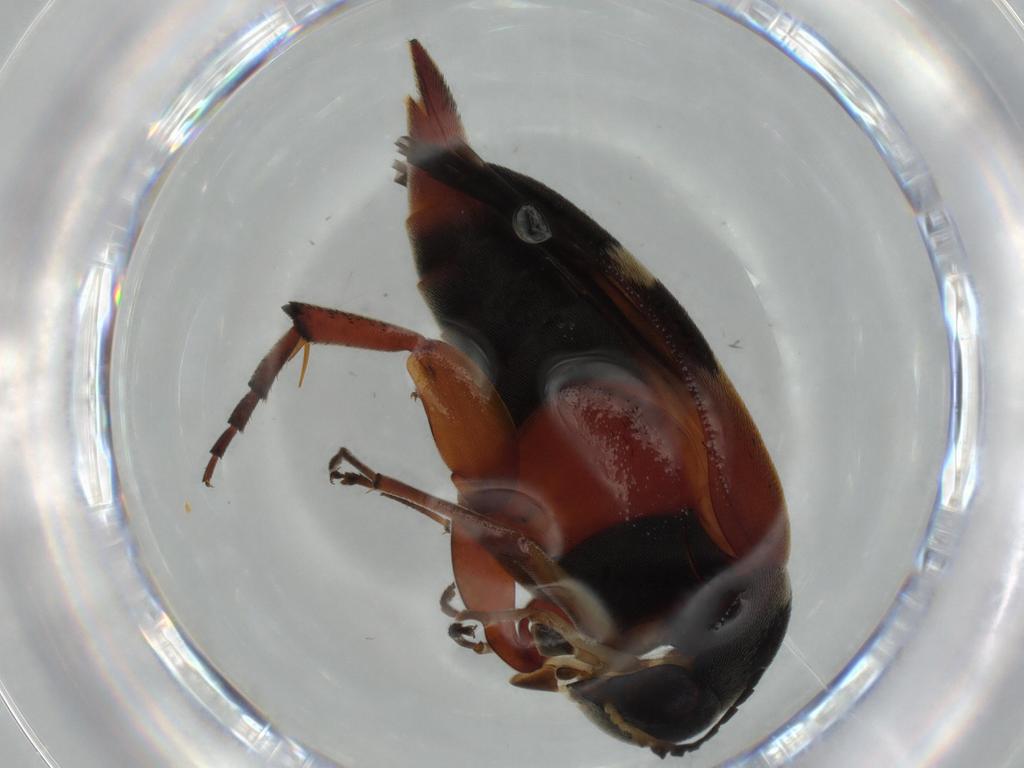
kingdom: Animalia
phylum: Arthropoda
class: Insecta
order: Coleoptera
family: Mordellidae
